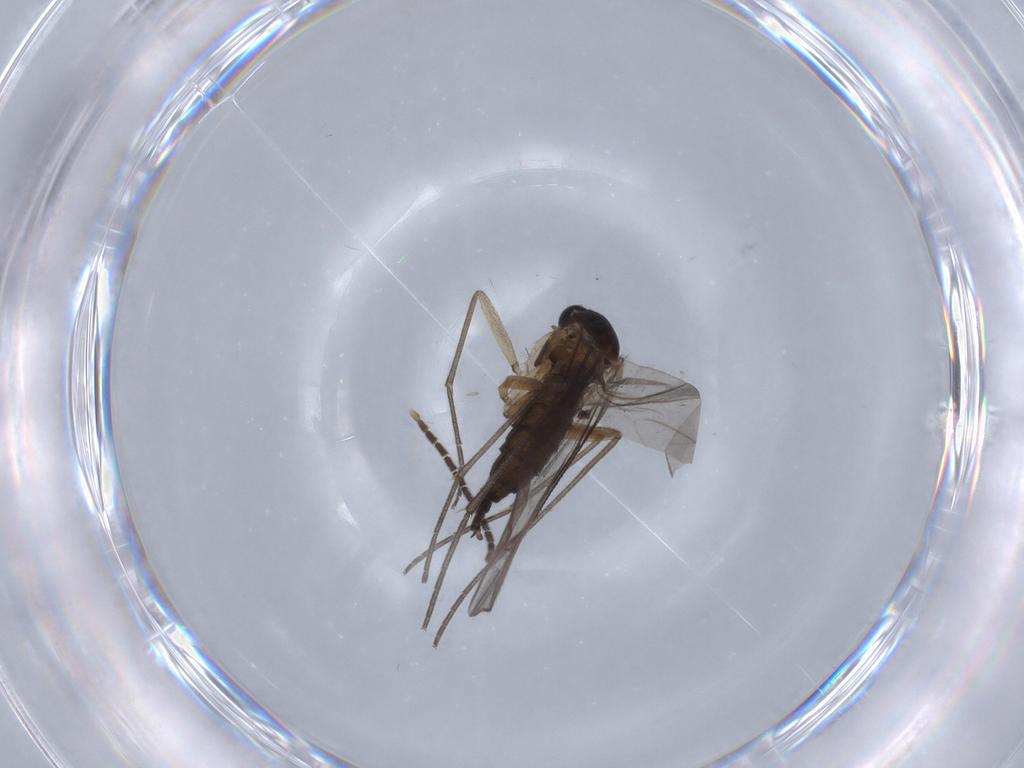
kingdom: Animalia
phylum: Arthropoda
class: Insecta
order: Diptera
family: Sciaridae
